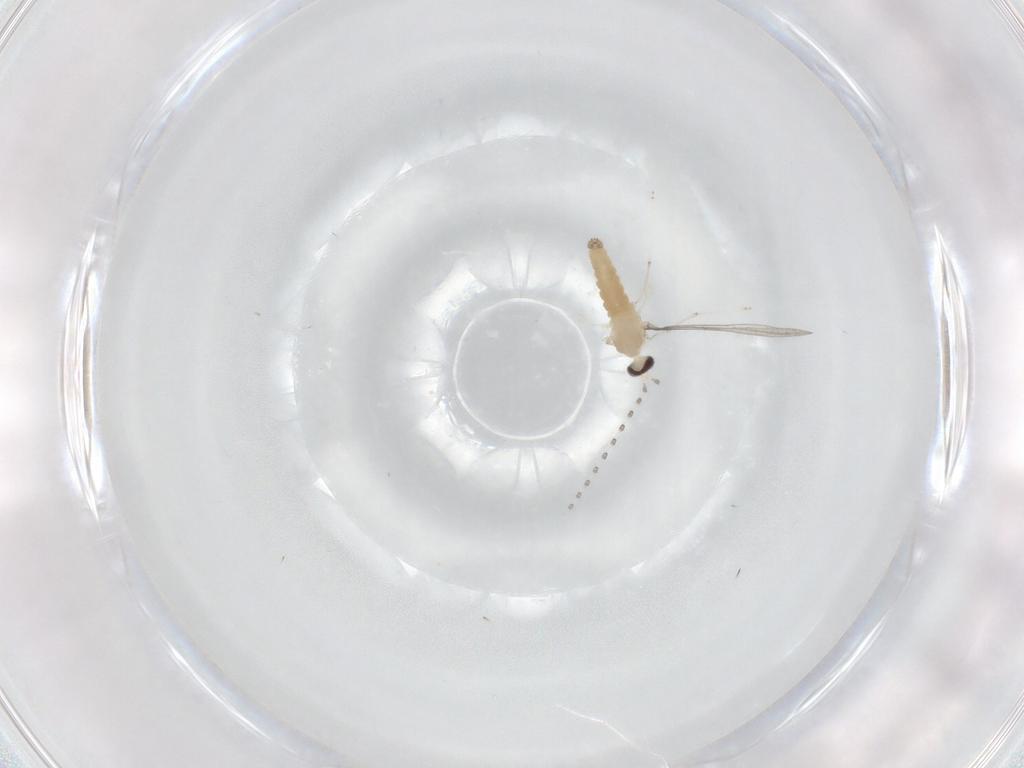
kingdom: Animalia
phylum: Arthropoda
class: Insecta
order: Diptera
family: Cecidomyiidae
